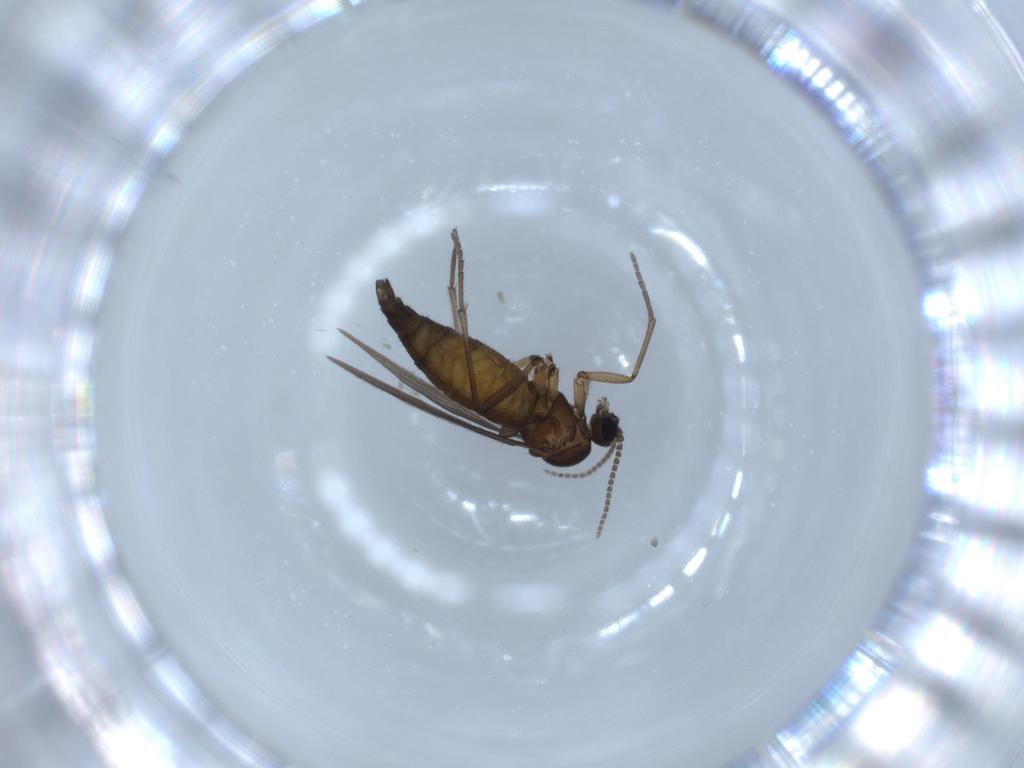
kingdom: Animalia
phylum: Arthropoda
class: Insecta
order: Diptera
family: Sciaridae
